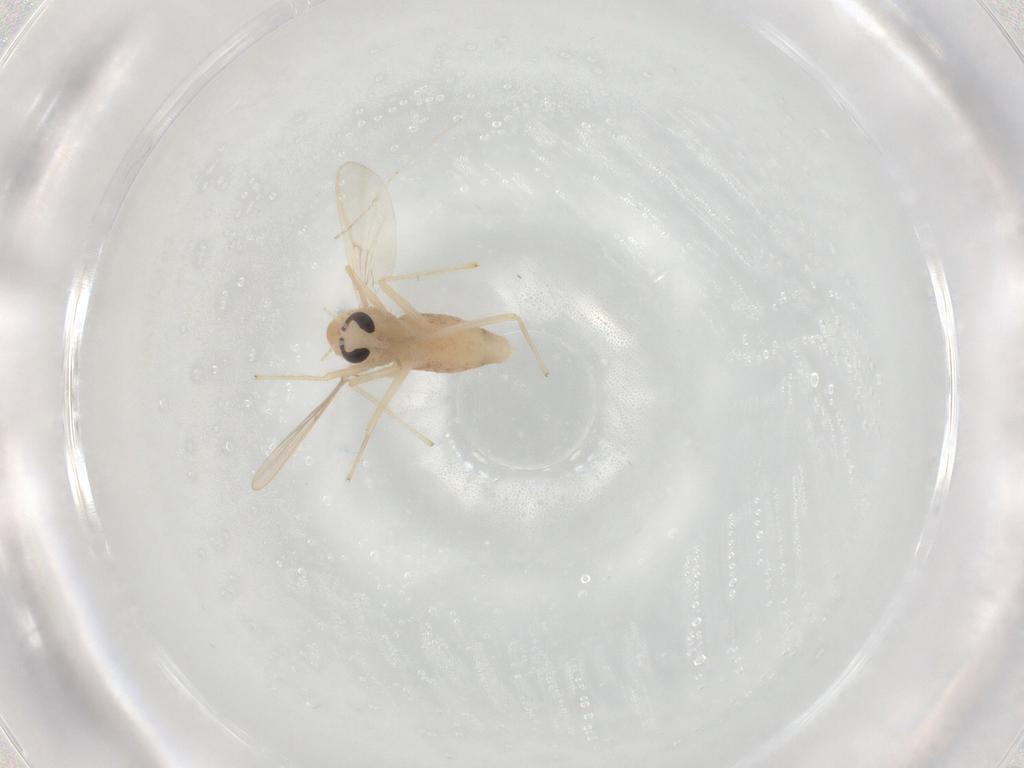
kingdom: Animalia
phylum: Arthropoda
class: Insecta
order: Diptera
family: Chironomidae
